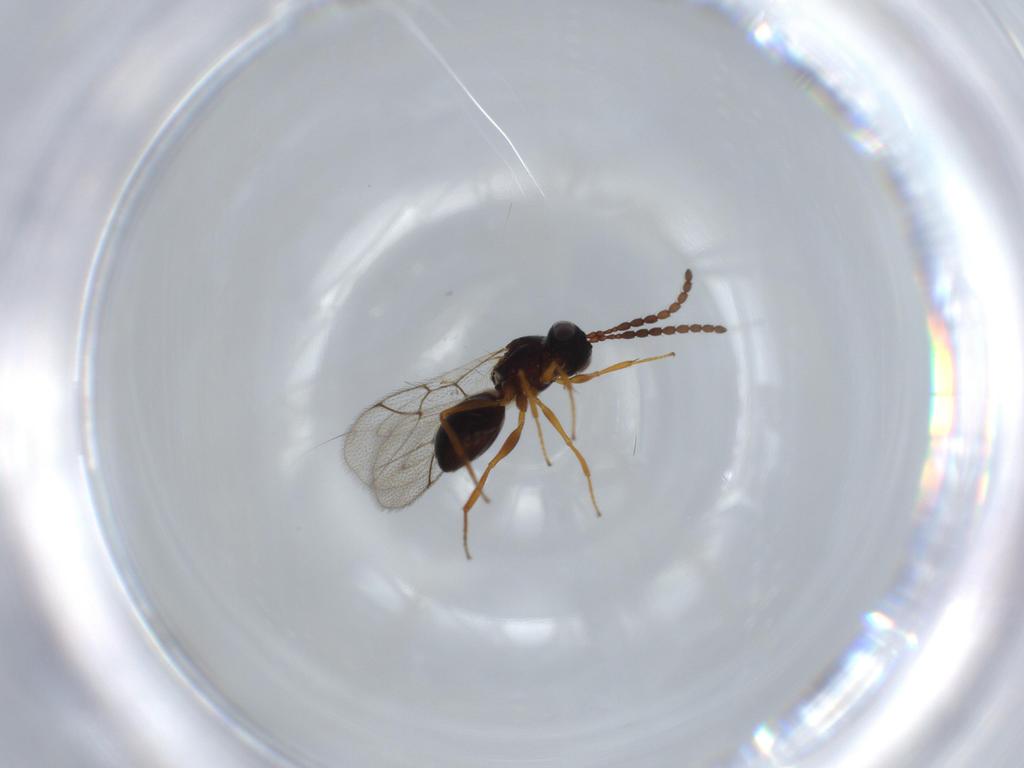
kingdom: Animalia
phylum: Arthropoda
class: Insecta
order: Hymenoptera
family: Figitidae
